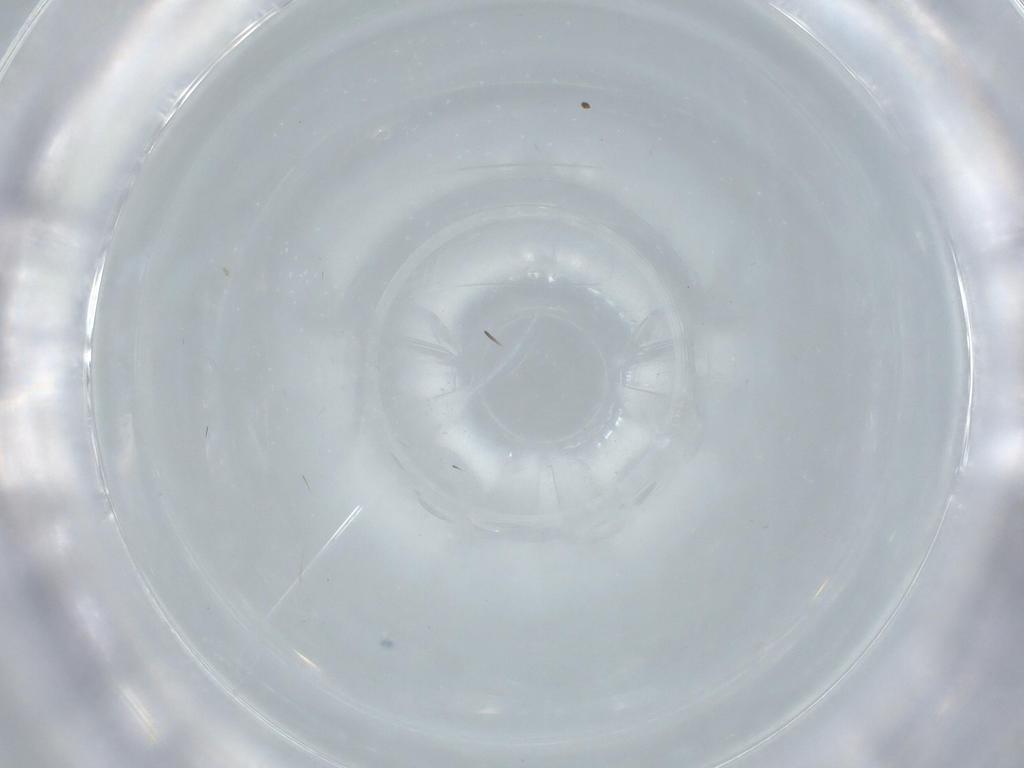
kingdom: Animalia
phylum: Arthropoda
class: Insecta
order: Psocodea
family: Caeciliusidae
